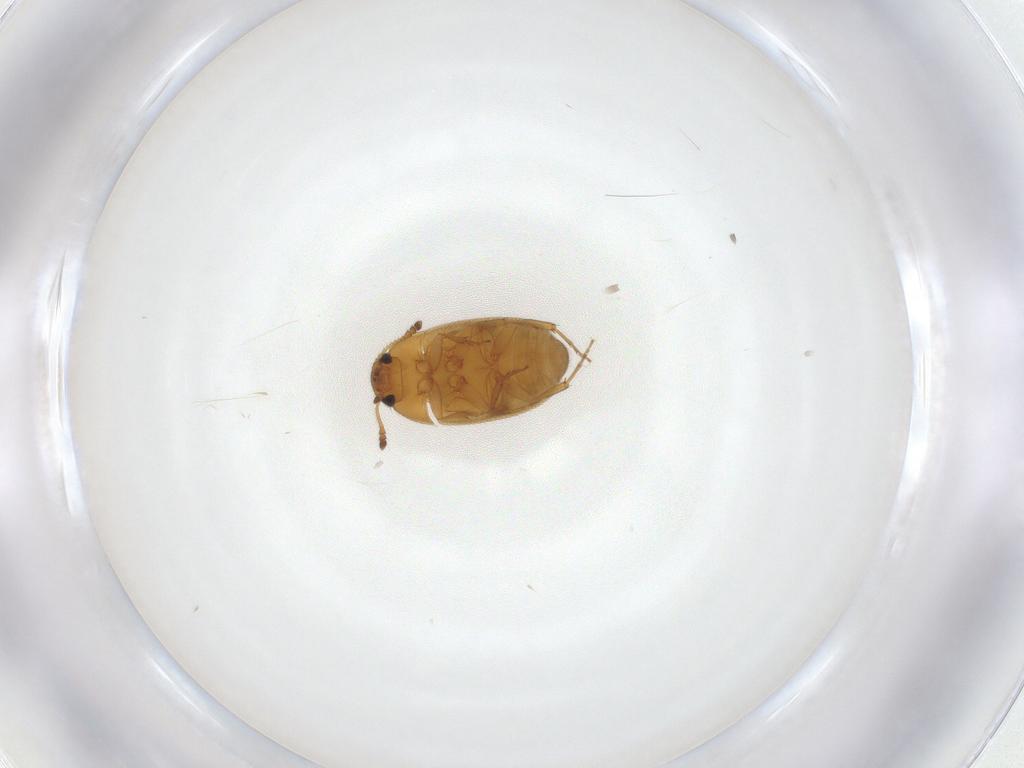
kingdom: Animalia
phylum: Arthropoda
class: Insecta
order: Coleoptera
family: Mycetophagidae
